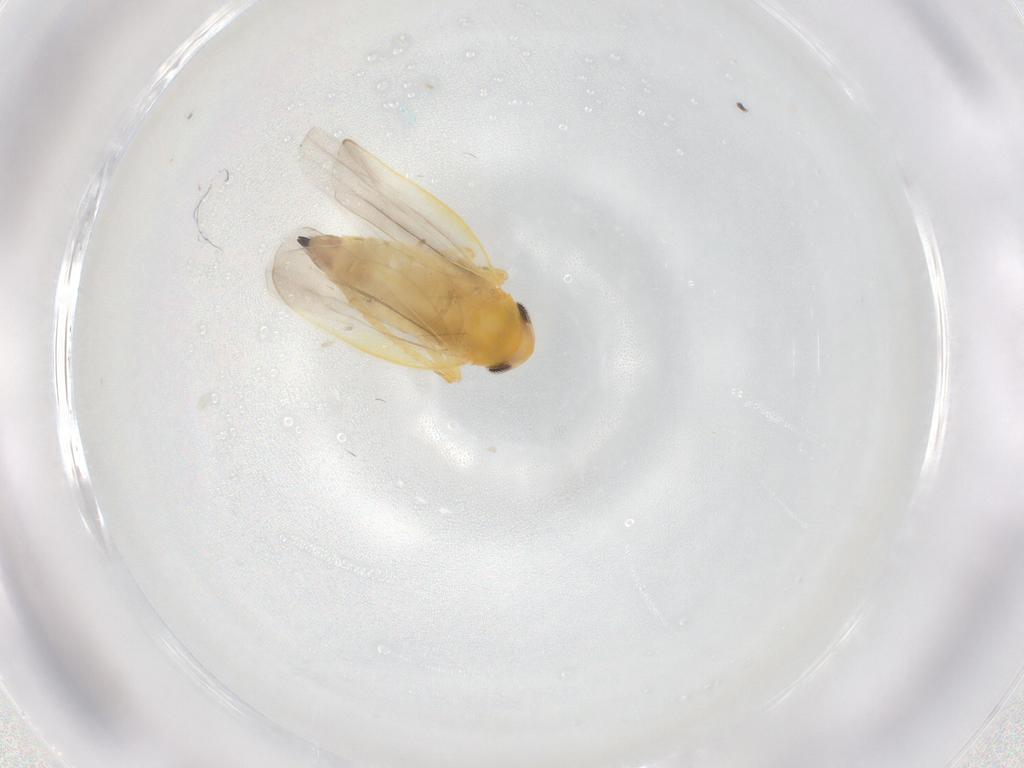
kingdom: Animalia
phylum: Arthropoda
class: Insecta
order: Hemiptera
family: Cicadellidae
